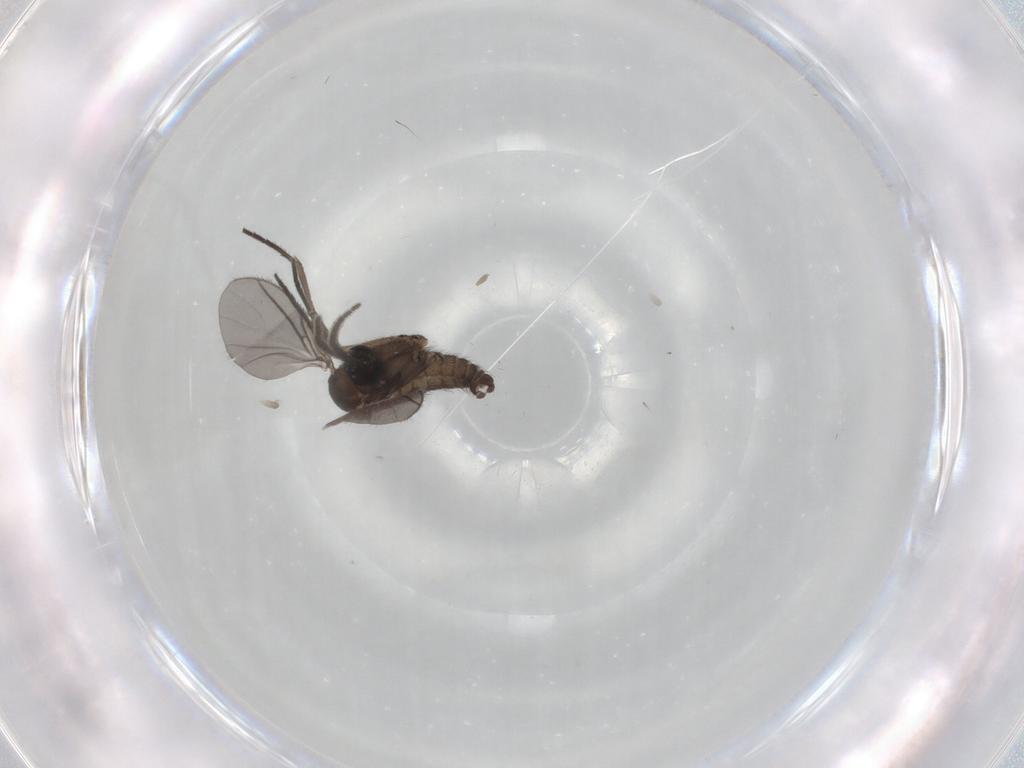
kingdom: Animalia
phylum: Arthropoda
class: Insecta
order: Diptera
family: Sciaridae
